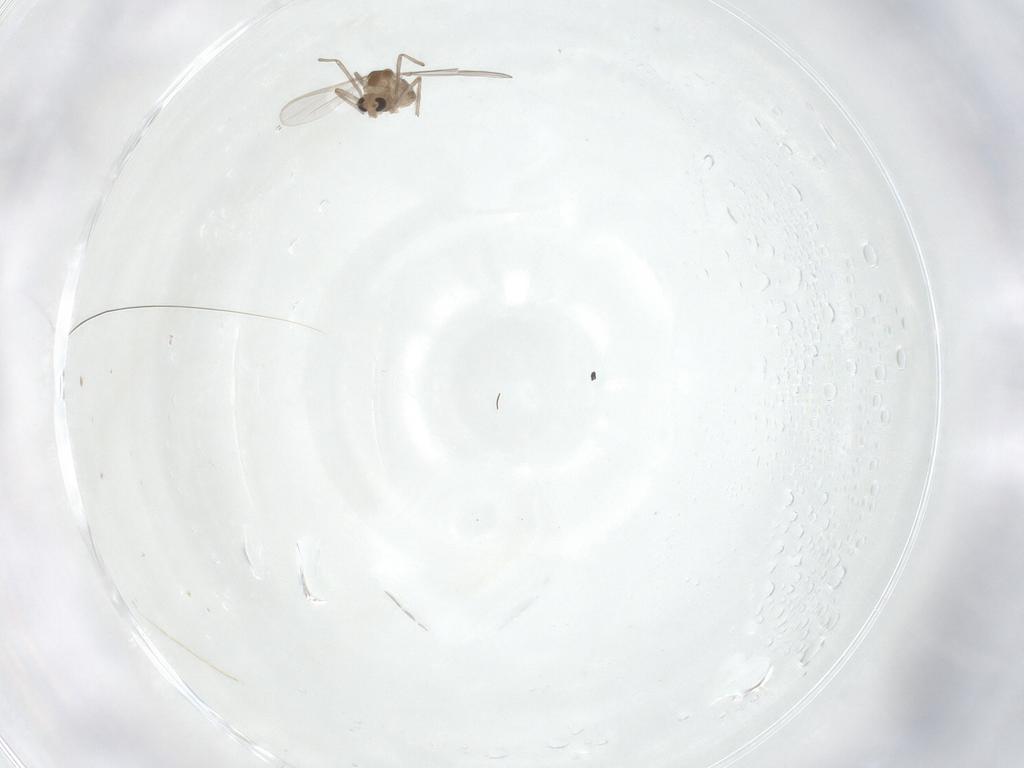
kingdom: Animalia
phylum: Arthropoda
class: Insecta
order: Diptera
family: Chironomidae
